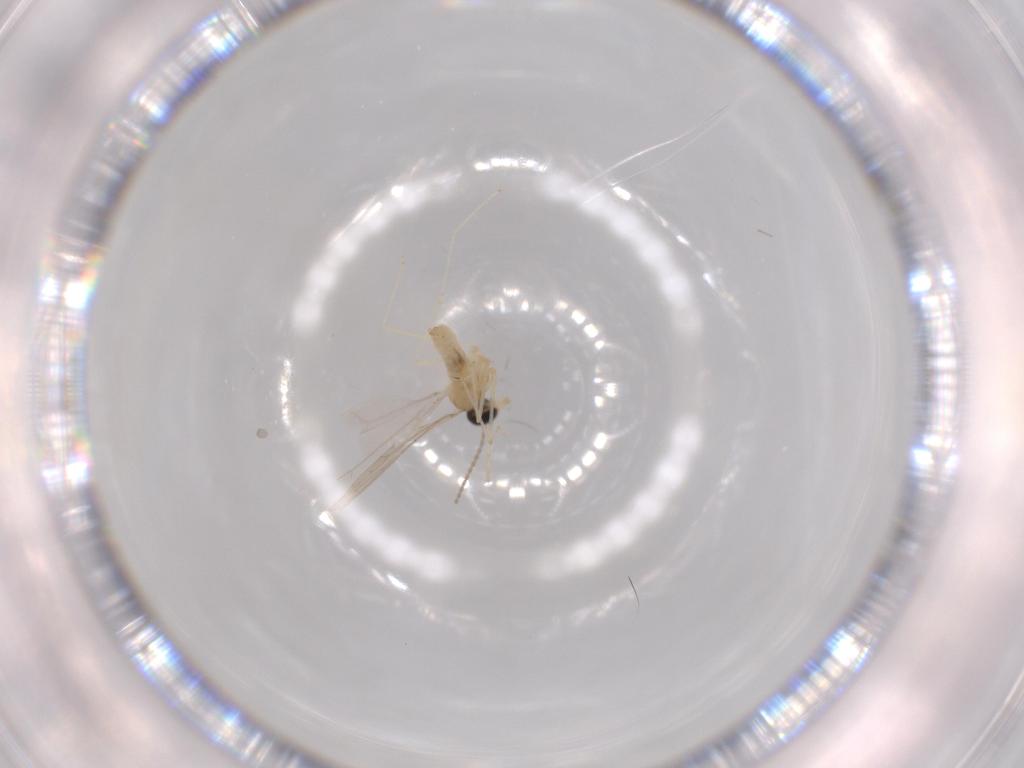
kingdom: Animalia
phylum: Arthropoda
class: Insecta
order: Diptera
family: Cecidomyiidae
